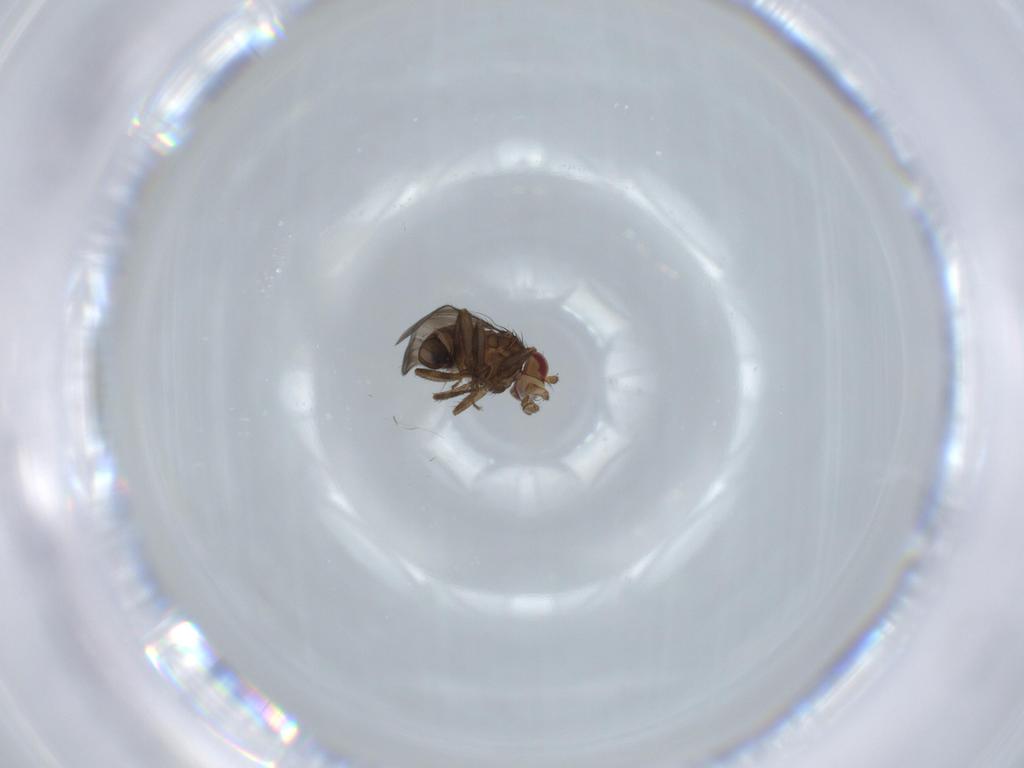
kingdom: Animalia
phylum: Arthropoda
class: Insecta
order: Diptera
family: Sphaeroceridae
